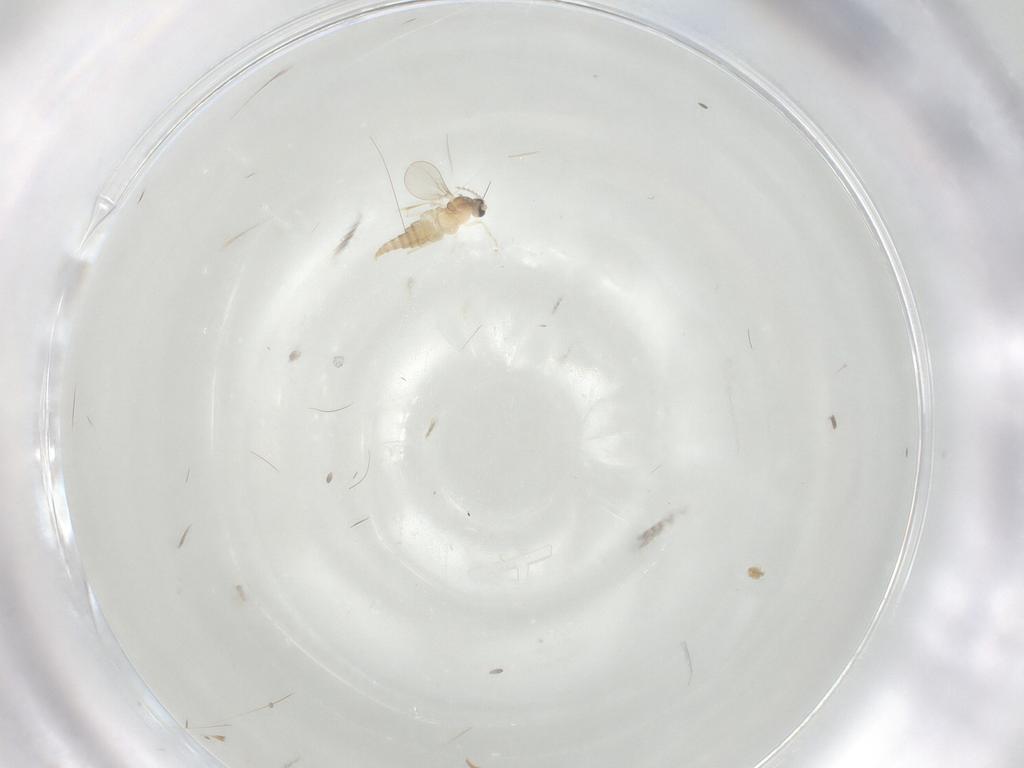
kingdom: Animalia
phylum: Arthropoda
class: Insecta
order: Diptera
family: Cecidomyiidae
